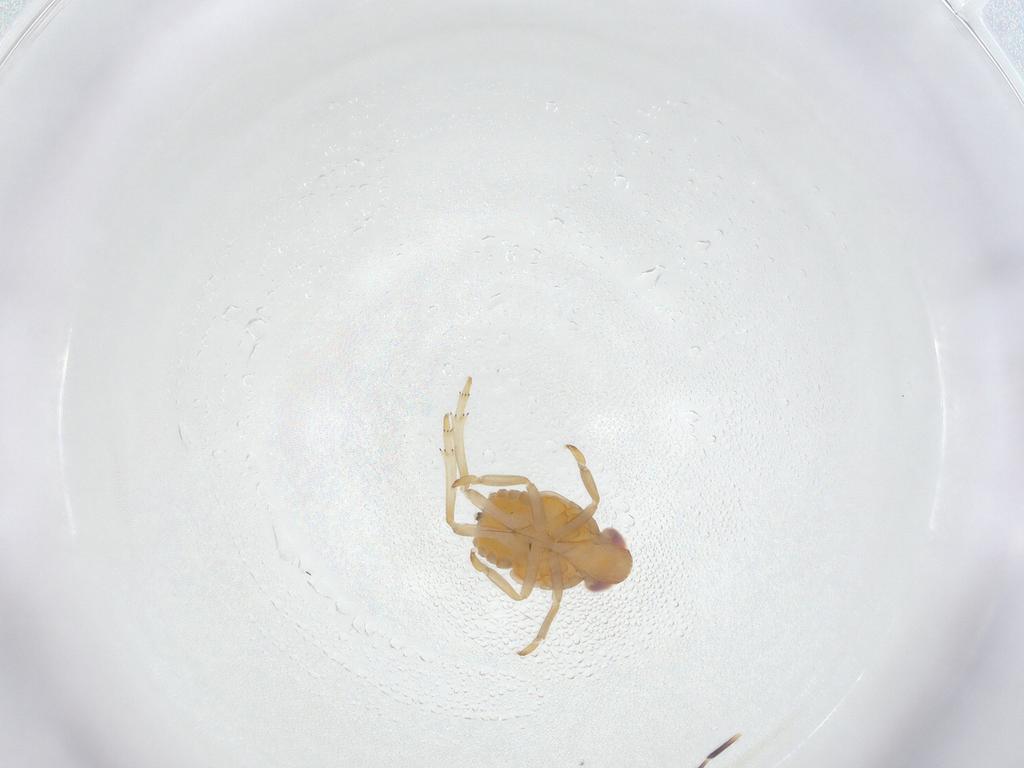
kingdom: Animalia
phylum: Arthropoda
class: Insecta
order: Hemiptera
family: Fulgoroidea_incertae_sedis
